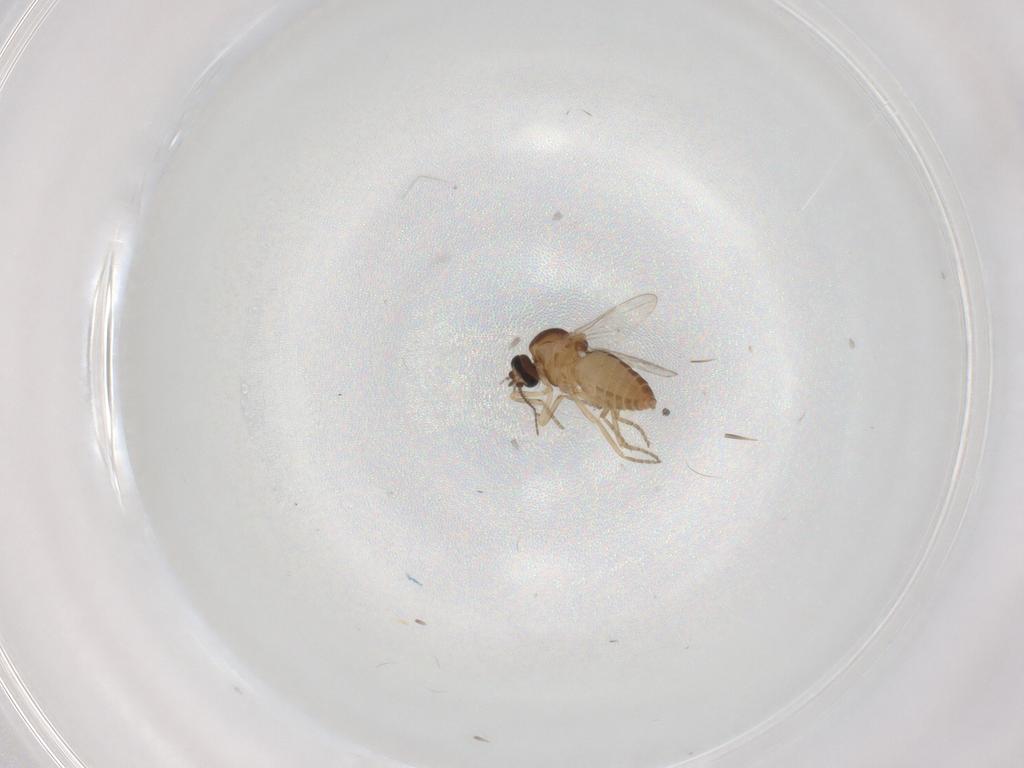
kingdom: Animalia
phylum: Arthropoda
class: Insecta
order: Diptera
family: Ceratopogonidae
